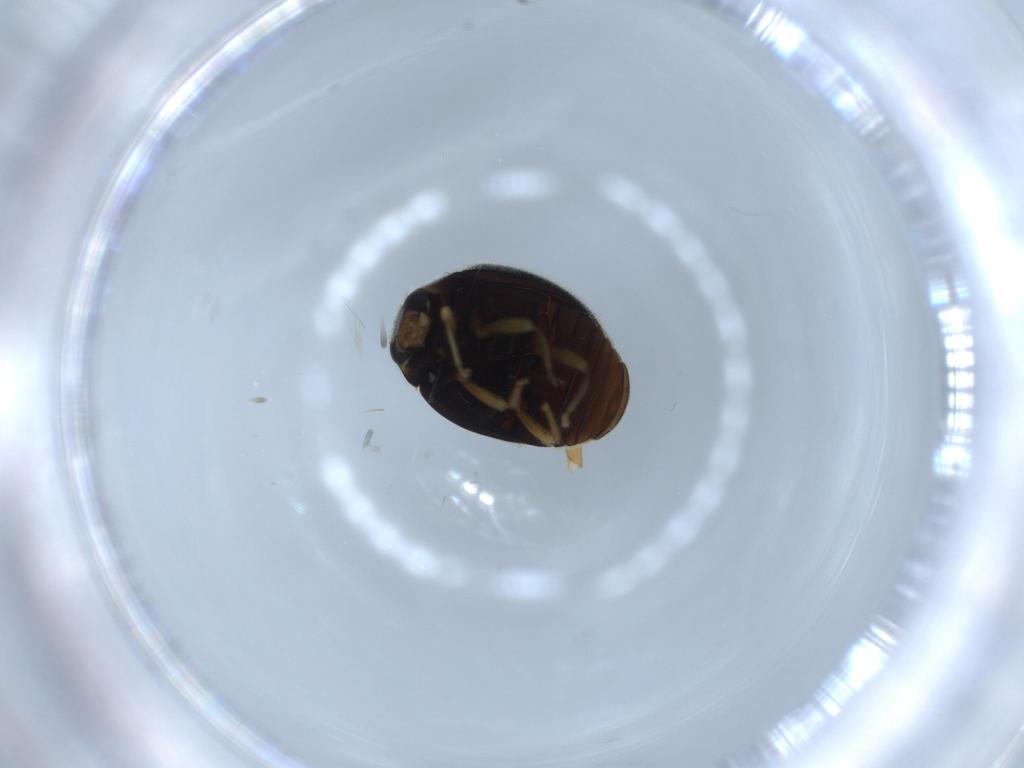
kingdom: Animalia
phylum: Arthropoda
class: Insecta
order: Coleoptera
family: Coccinellidae
